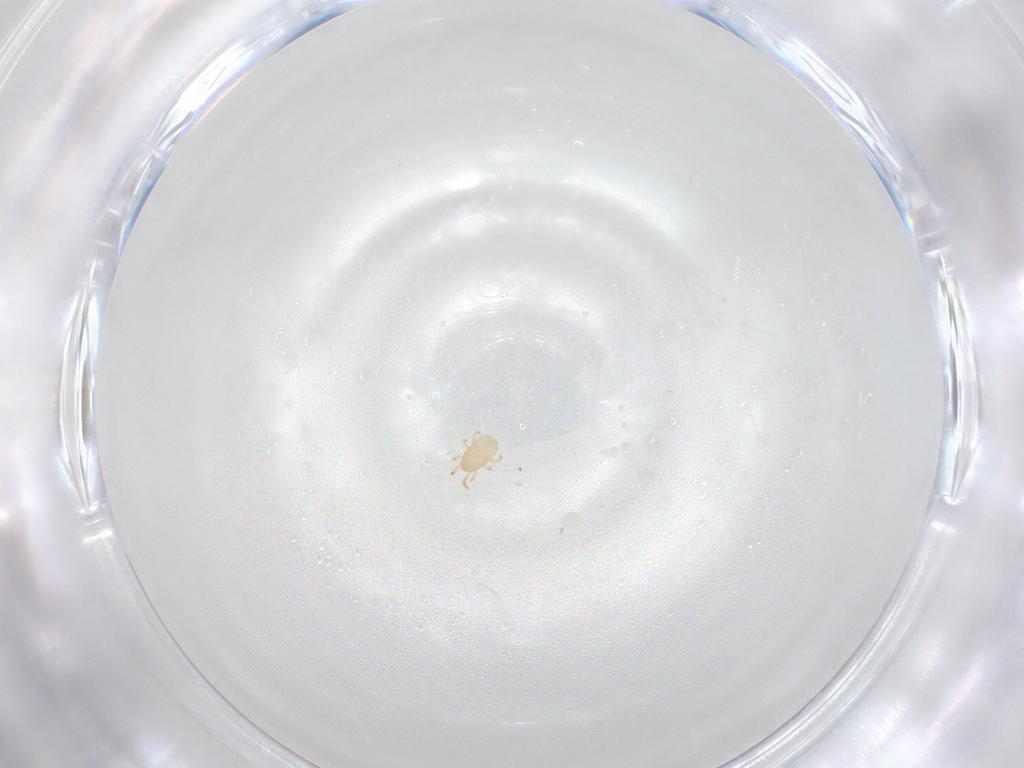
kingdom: Animalia
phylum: Arthropoda
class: Arachnida
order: Mesostigmata
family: Ameroseiidae
